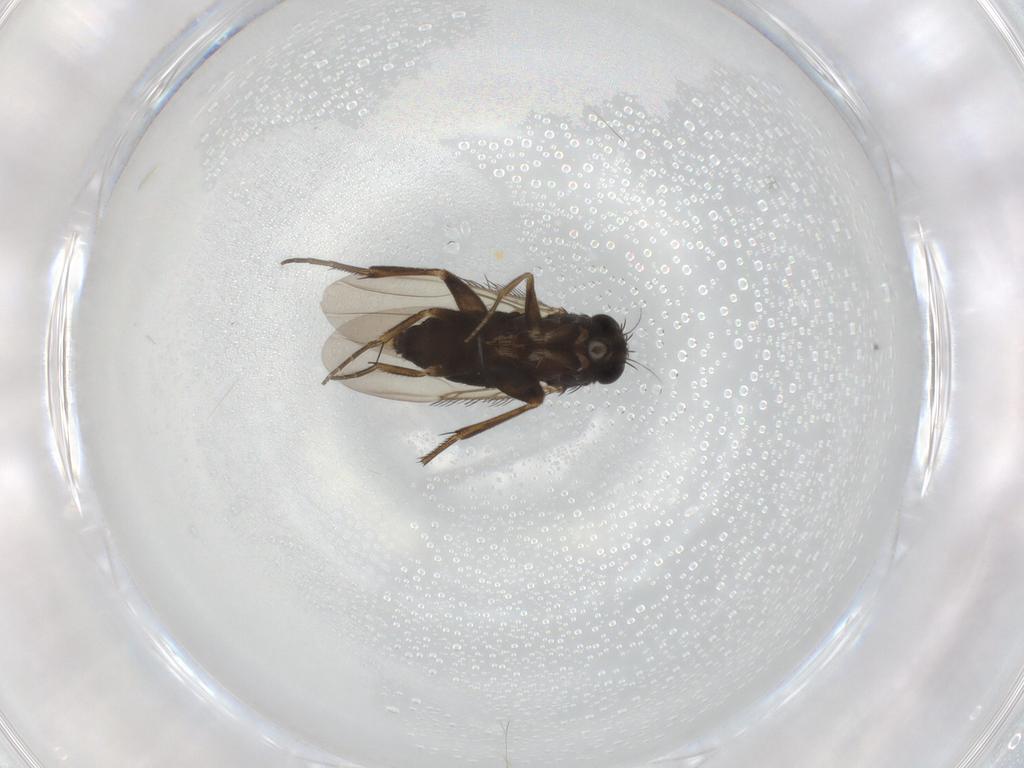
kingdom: Animalia
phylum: Arthropoda
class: Insecta
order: Diptera
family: Phoridae
